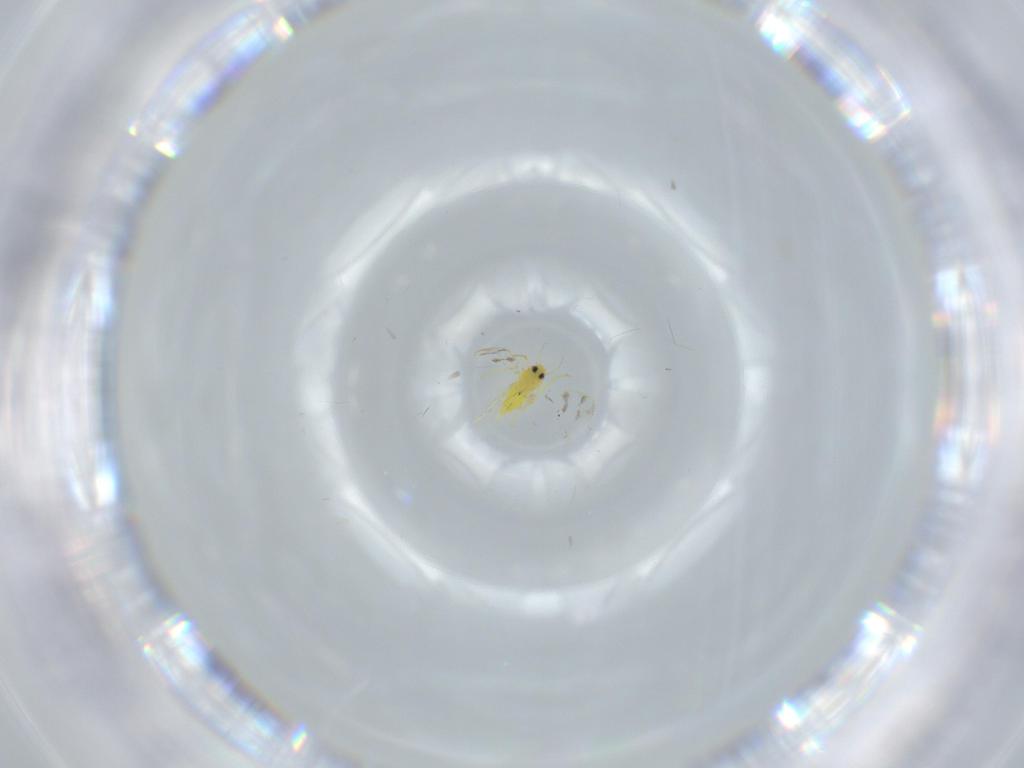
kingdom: Animalia
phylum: Arthropoda
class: Insecta
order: Hemiptera
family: Aleyrodidae
